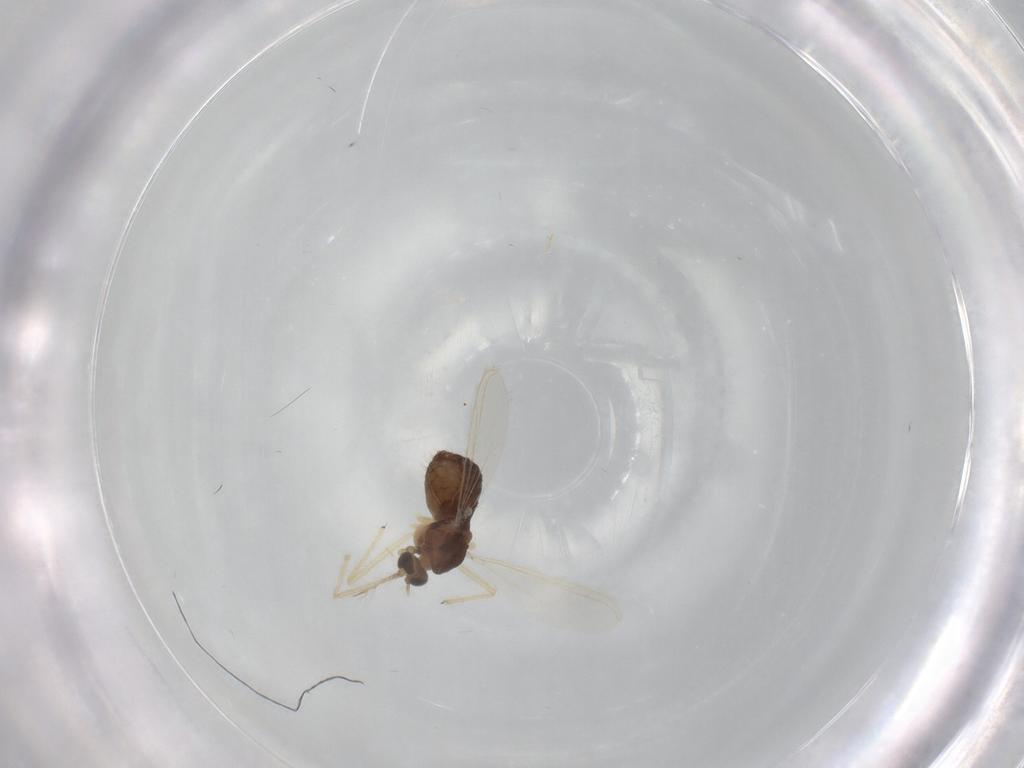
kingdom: Animalia
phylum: Arthropoda
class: Insecta
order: Diptera
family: Chironomidae
